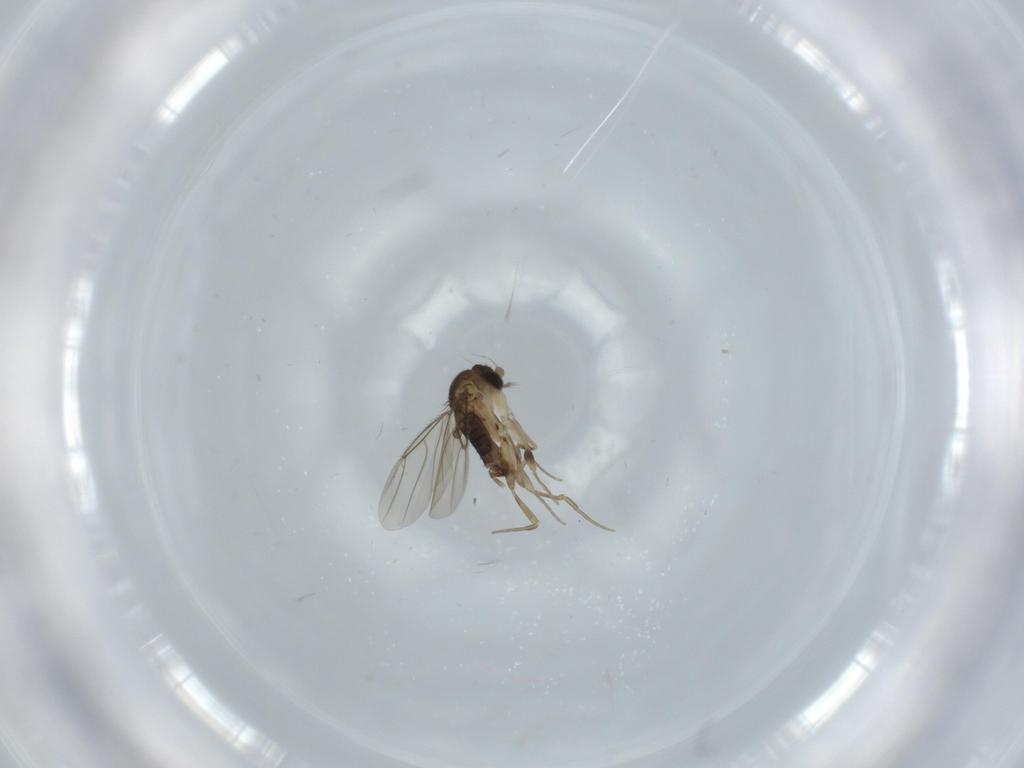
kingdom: Animalia
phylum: Arthropoda
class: Insecta
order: Diptera
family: Phoridae
